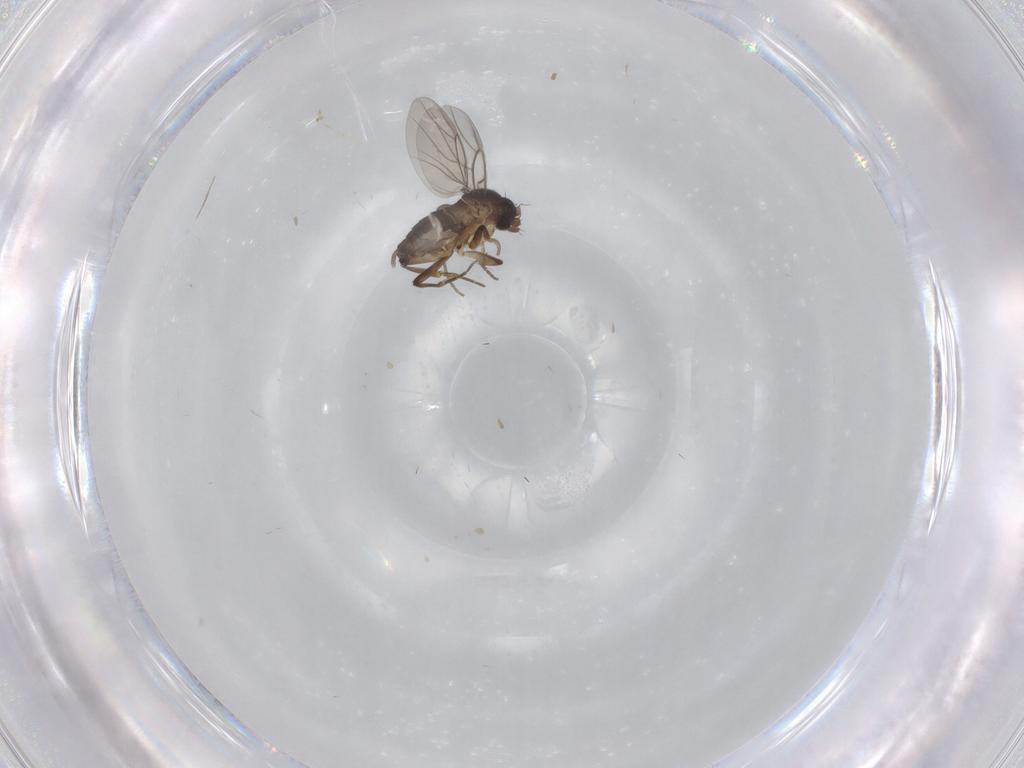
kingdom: Animalia
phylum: Arthropoda
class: Insecta
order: Diptera
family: Phoridae
